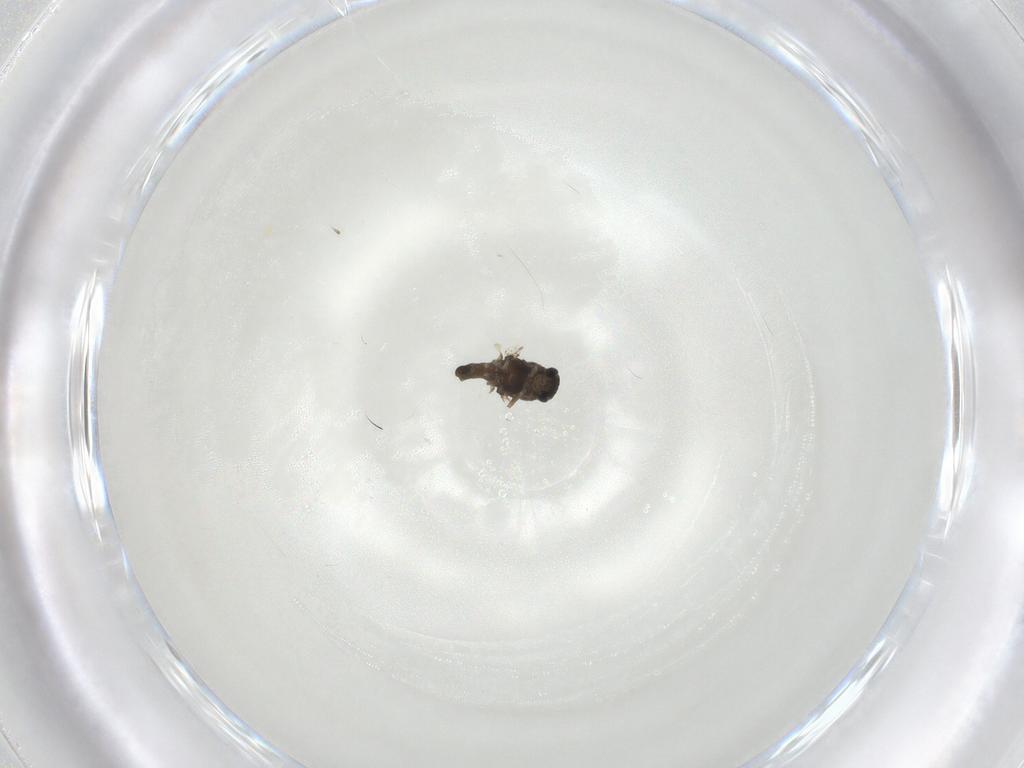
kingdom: Animalia
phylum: Arthropoda
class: Insecta
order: Diptera
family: Chironomidae
